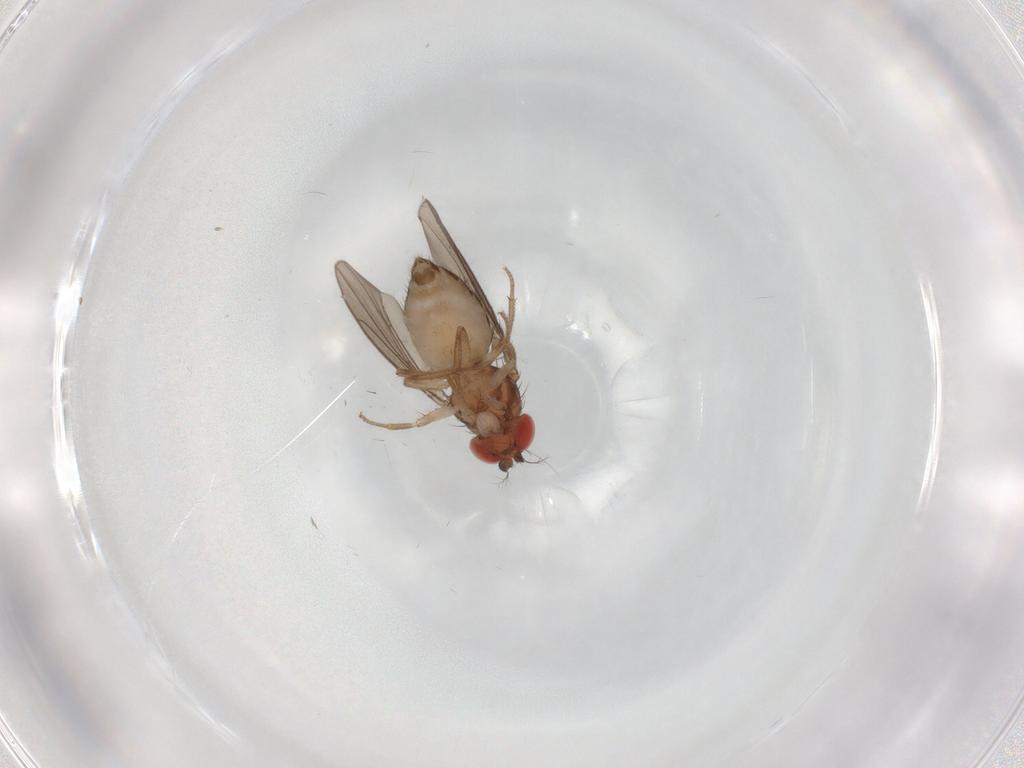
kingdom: Animalia
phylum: Arthropoda
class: Insecta
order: Diptera
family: Drosophilidae
